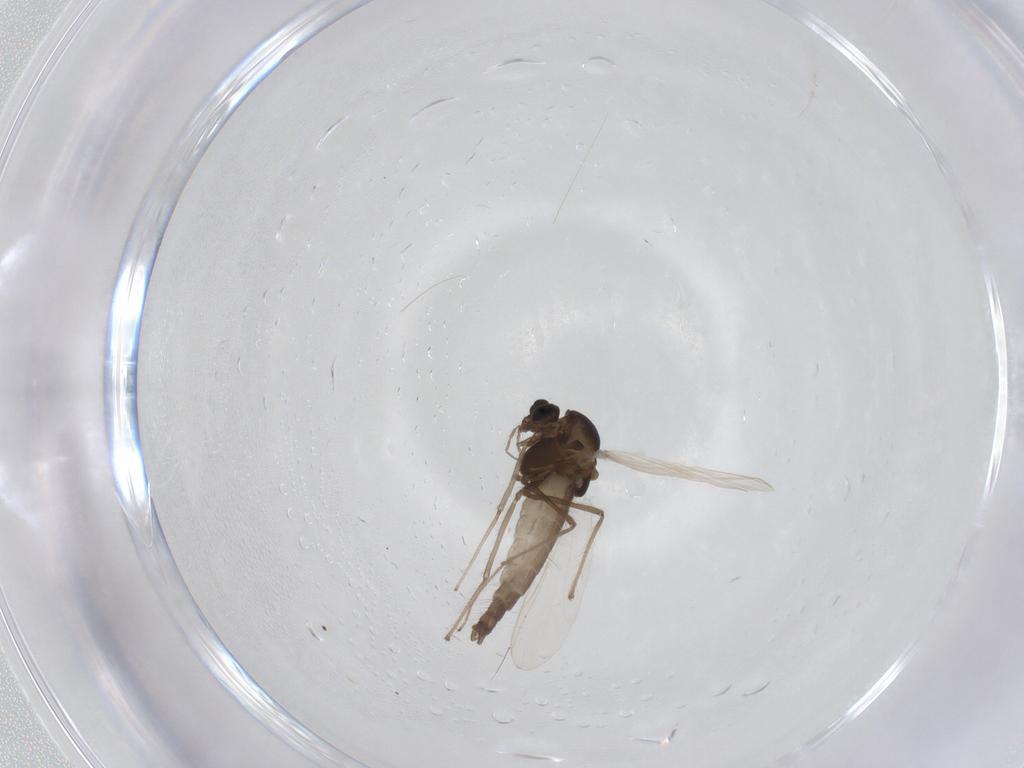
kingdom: Animalia
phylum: Arthropoda
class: Insecta
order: Diptera
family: Chironomidae
